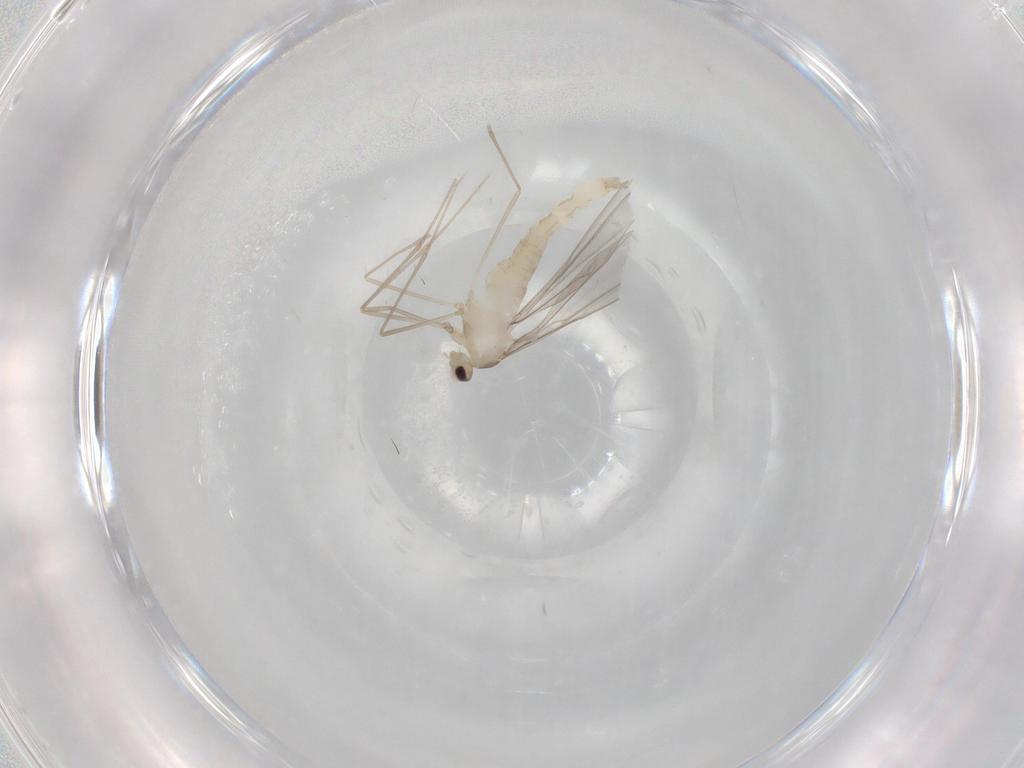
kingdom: Animalia
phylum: Arthropoda
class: Insecta
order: Diptera
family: Cecidomyiidae
